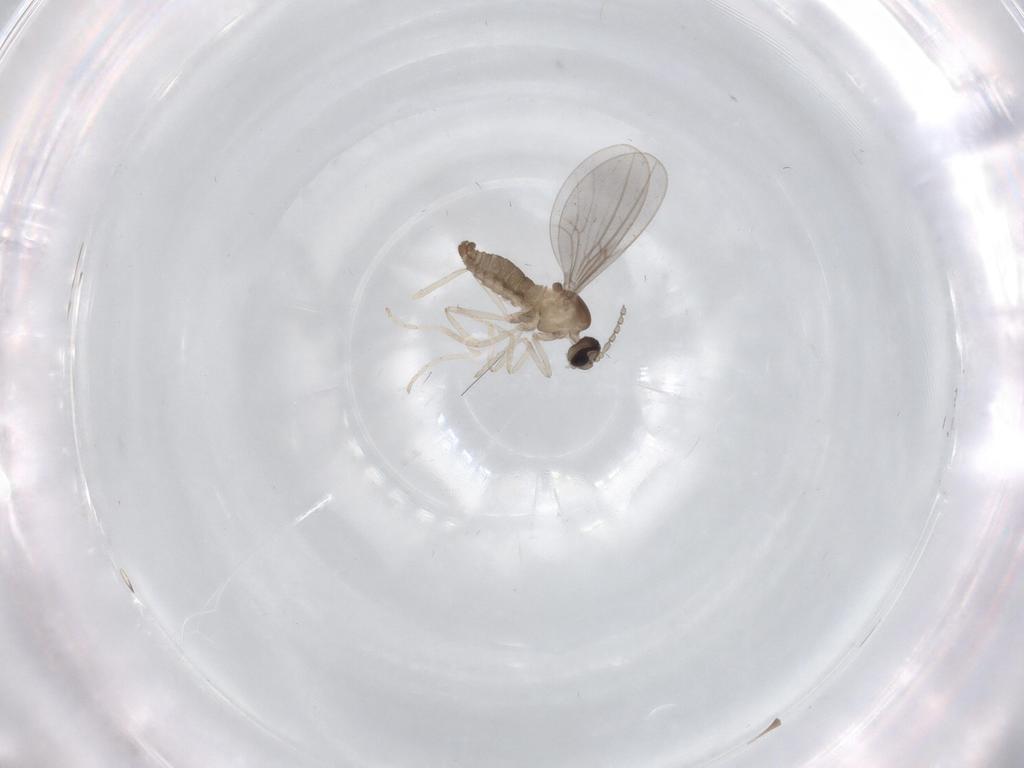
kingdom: Animalia
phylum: Arthropoda
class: Insecta
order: Diptera
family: Cecidomyiidae
